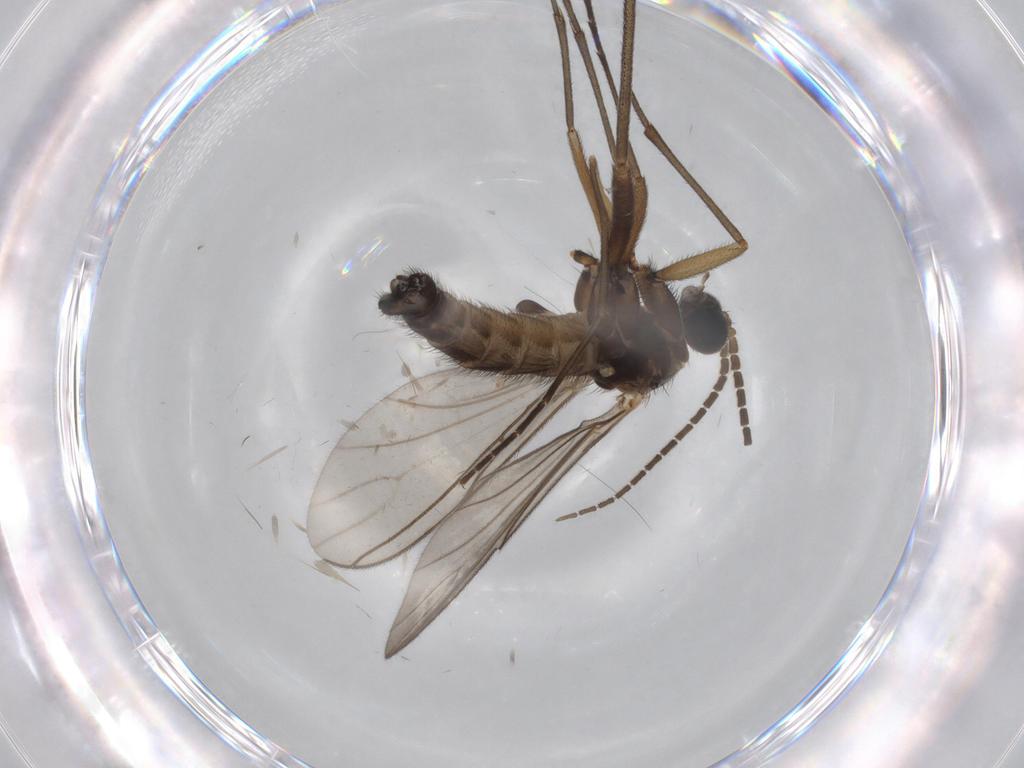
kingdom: Animalia
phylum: Arthropoda
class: Insecta
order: Diptera
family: Sciaridae
